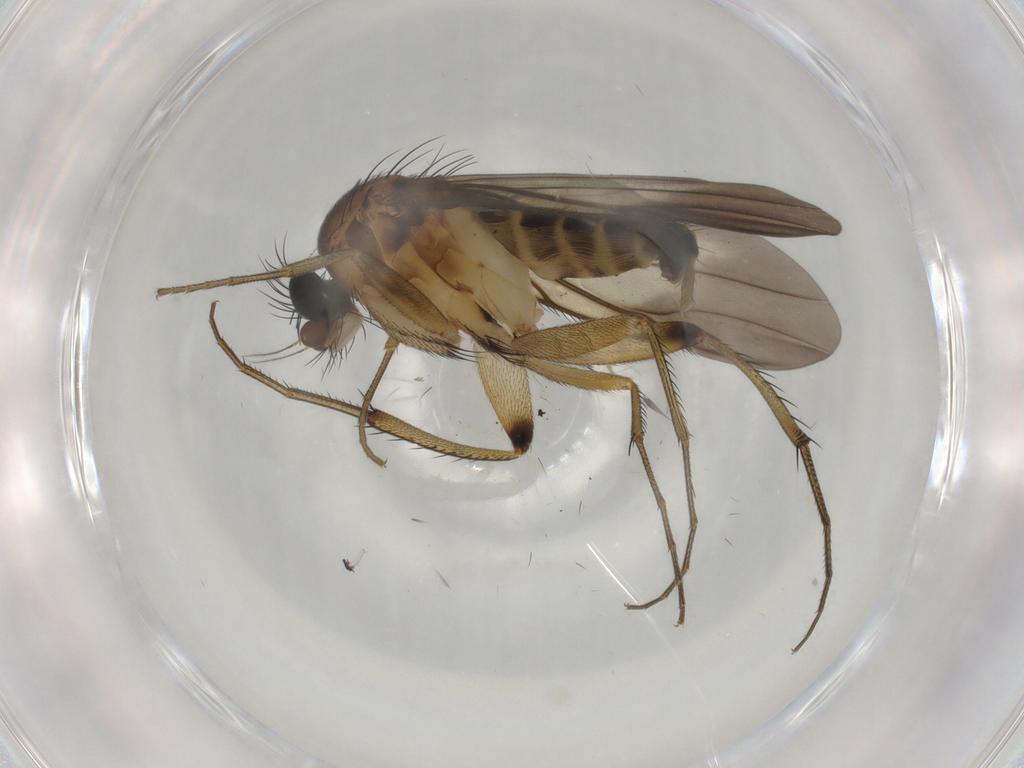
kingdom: Animalia
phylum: Arthropoda
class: Insecta
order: Diptera
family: Phoridae
